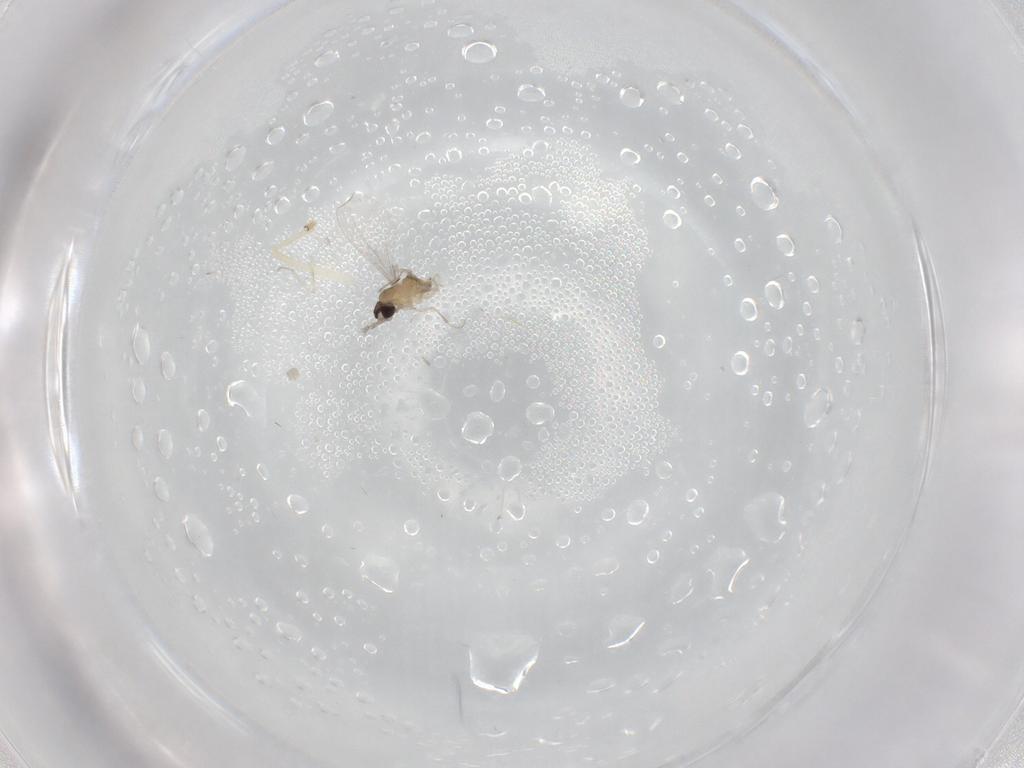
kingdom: Animalia
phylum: Arthropoda
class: Insecta
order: Diptera
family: Cecidomyiidae
